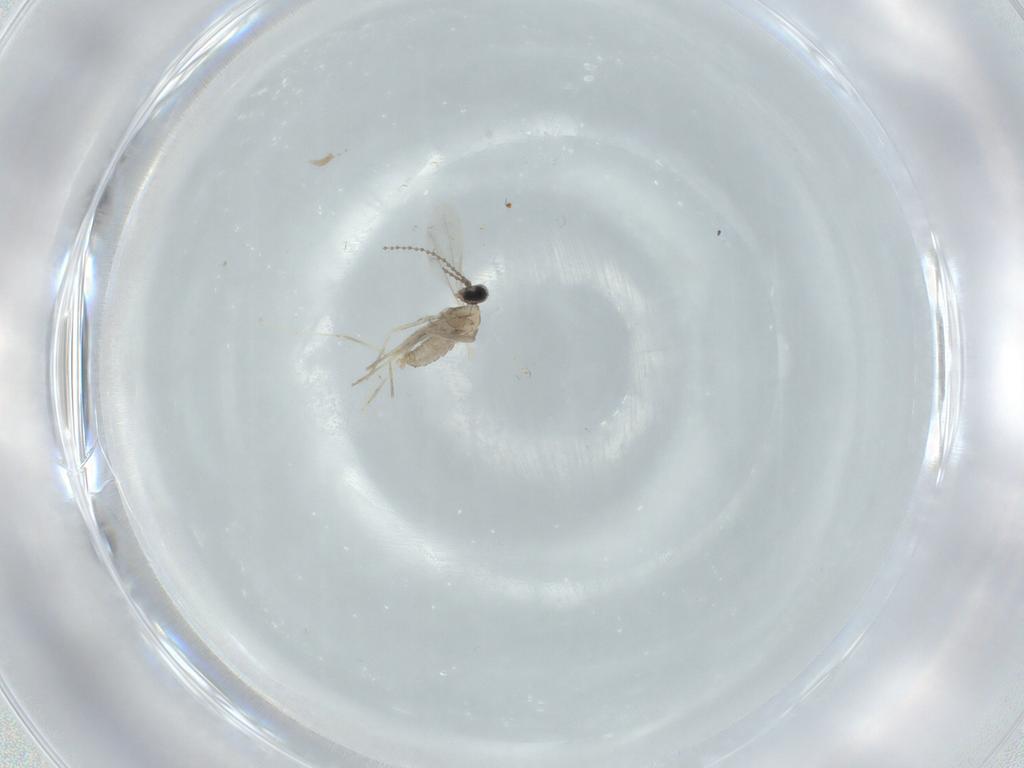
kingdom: Animalia
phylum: Arthropoda
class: Insecta
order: Diptera
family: Cecidomyiidae
